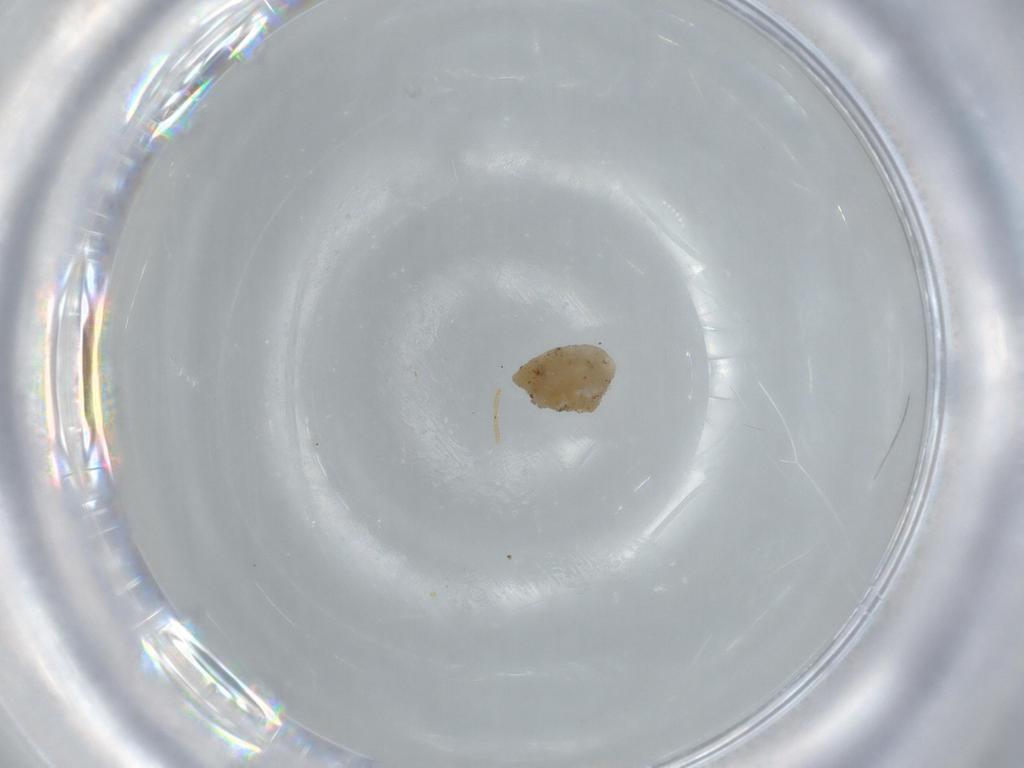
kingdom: Animalia
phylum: Arthropoda
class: Insecta
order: Diptera
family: Cecidomyiidae
